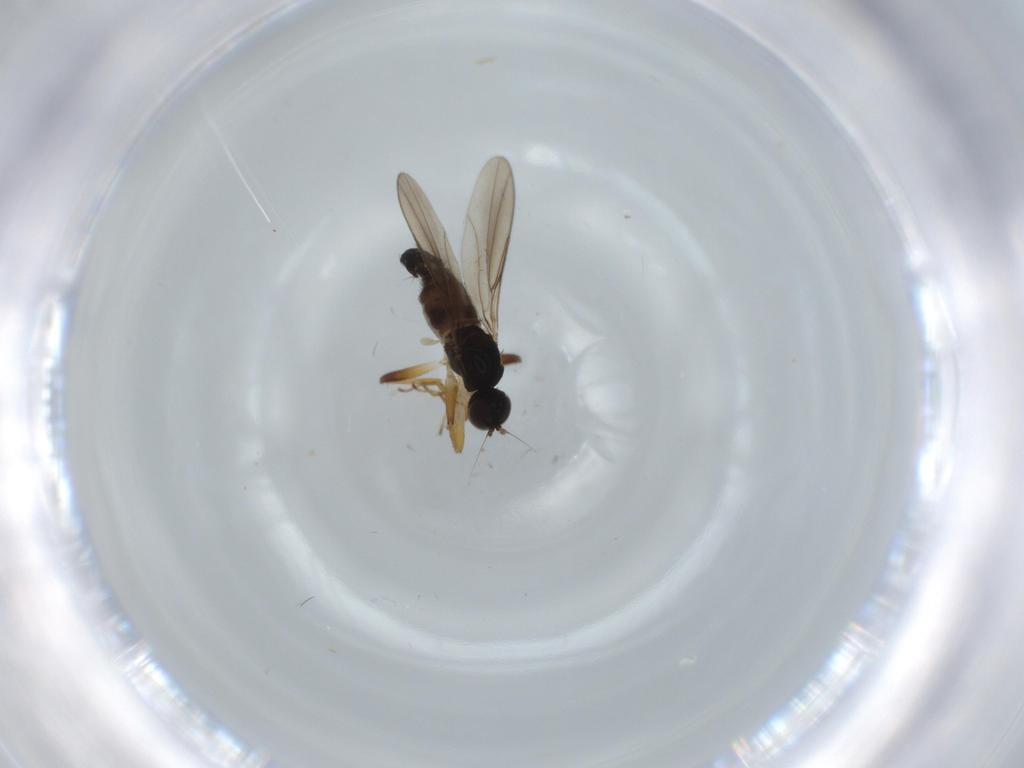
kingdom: Animalia
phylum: Arthropoda
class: Insecta
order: Diptera
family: Hybotidae
